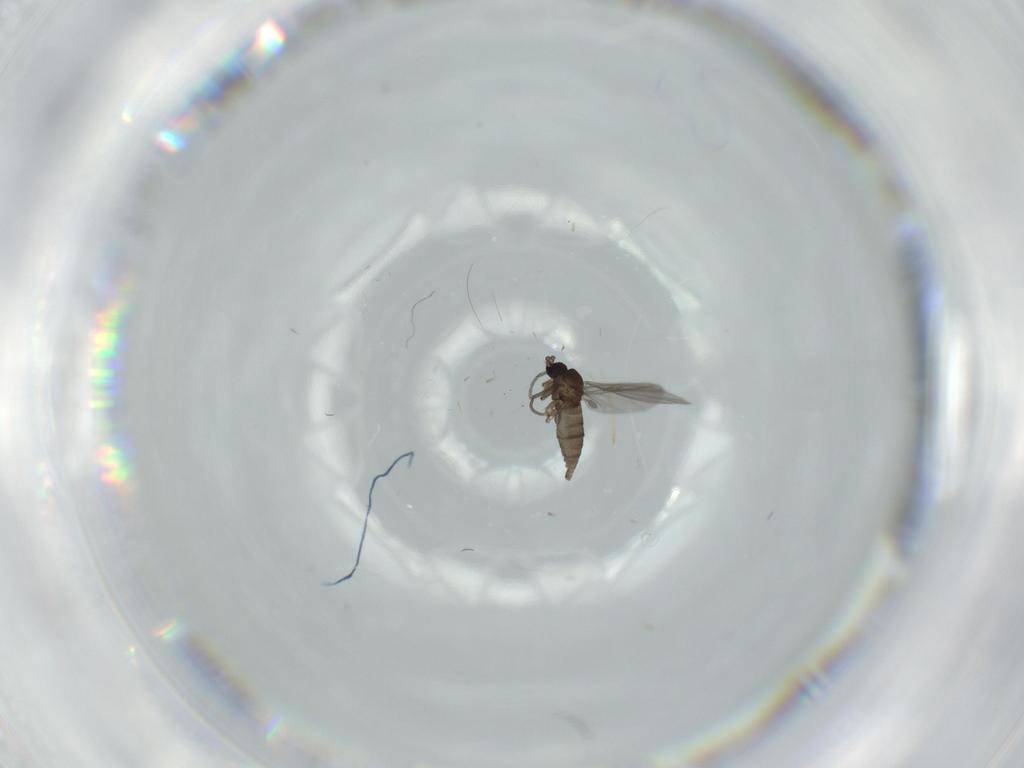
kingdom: Animalia
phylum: Arthropoda
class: Insecta
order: Diptera
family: Sciaridae
